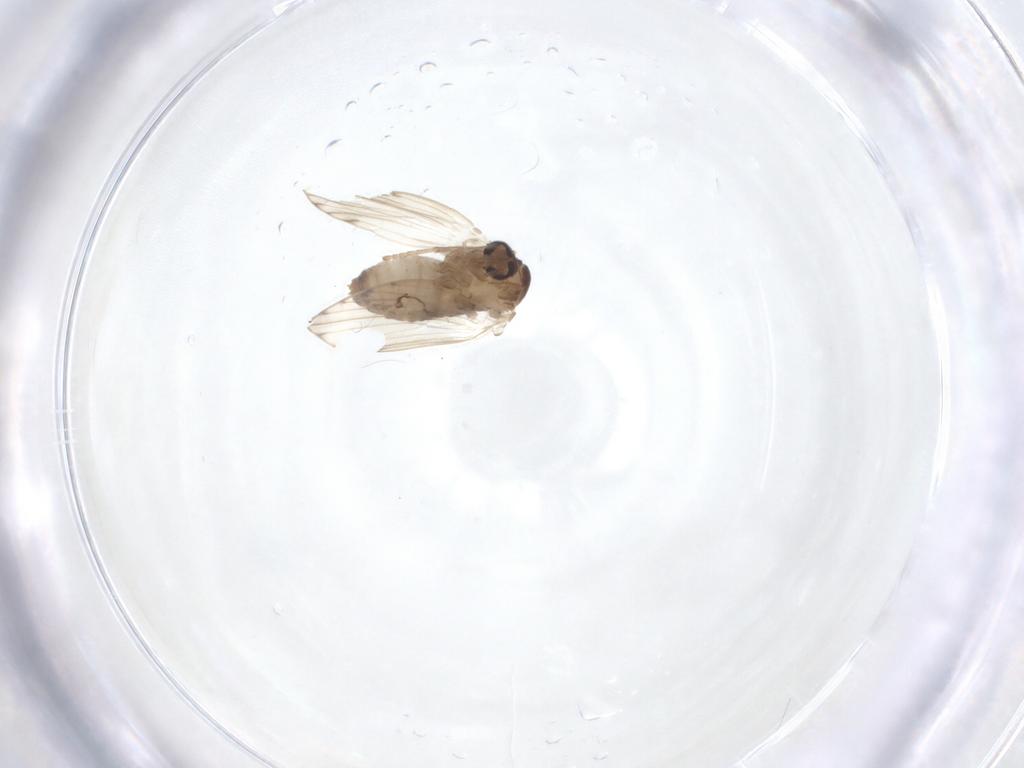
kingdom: Animalia
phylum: Arthropoda
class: Insecta
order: Diptera
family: Psychodidae
